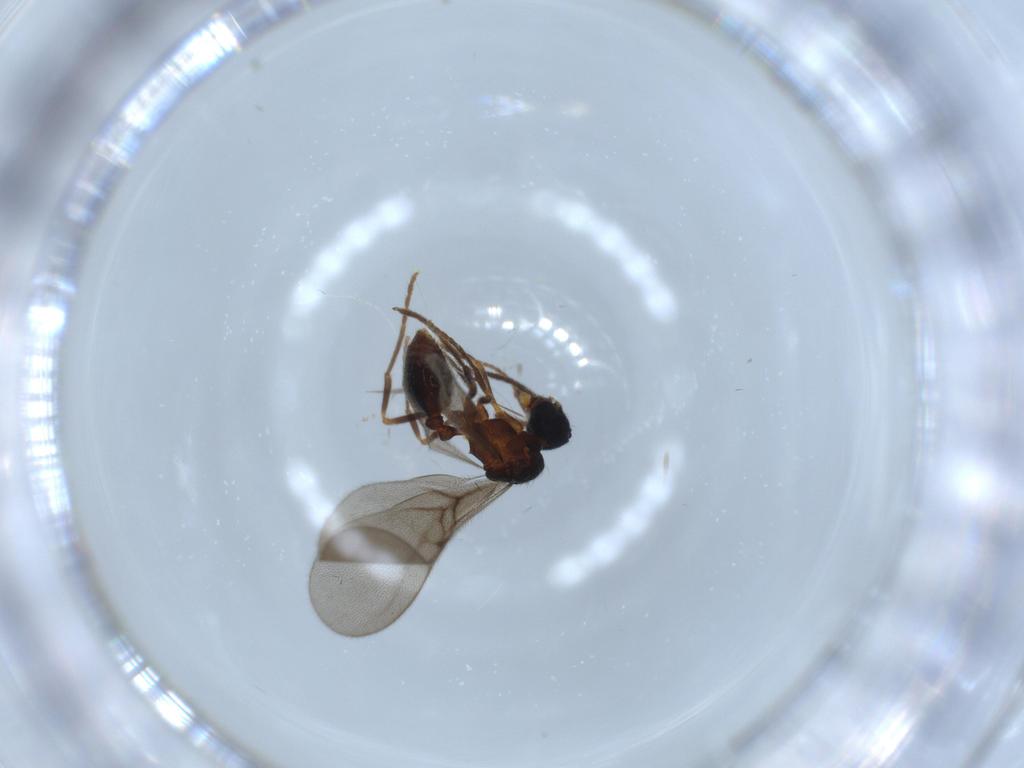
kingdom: Animalia
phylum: Arthropoda
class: Insecta
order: Hymenoptera
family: Formicidae
